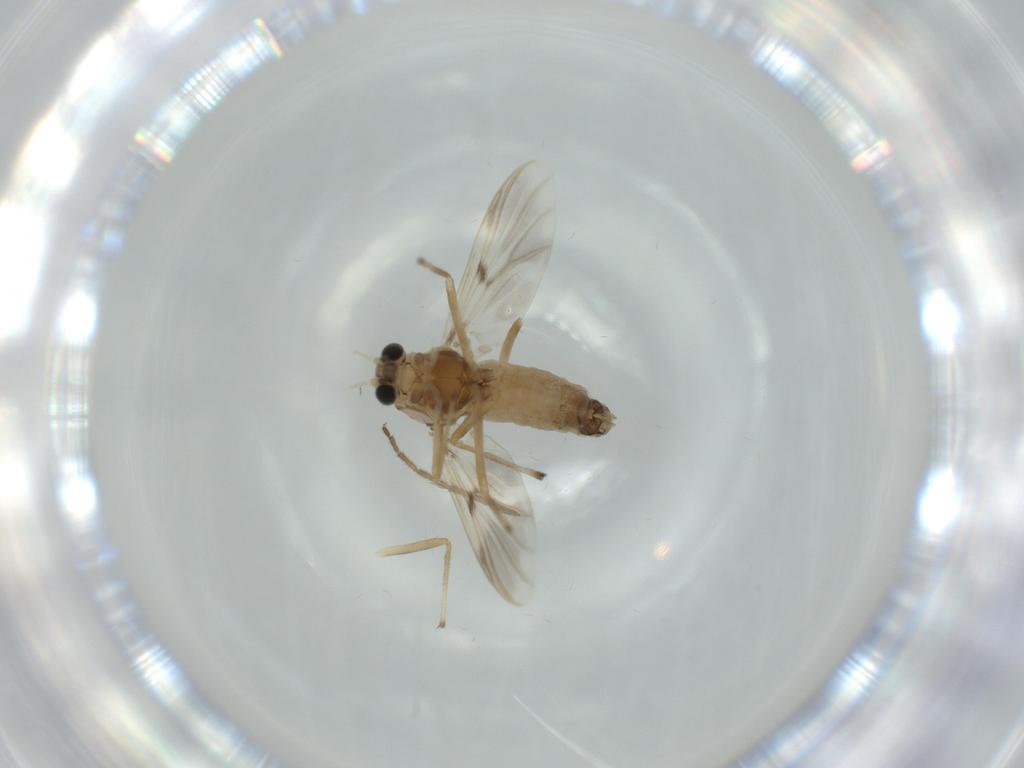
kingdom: Animalia
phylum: Arthropoda
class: Insecta
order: Diptera
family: Chironomidae
